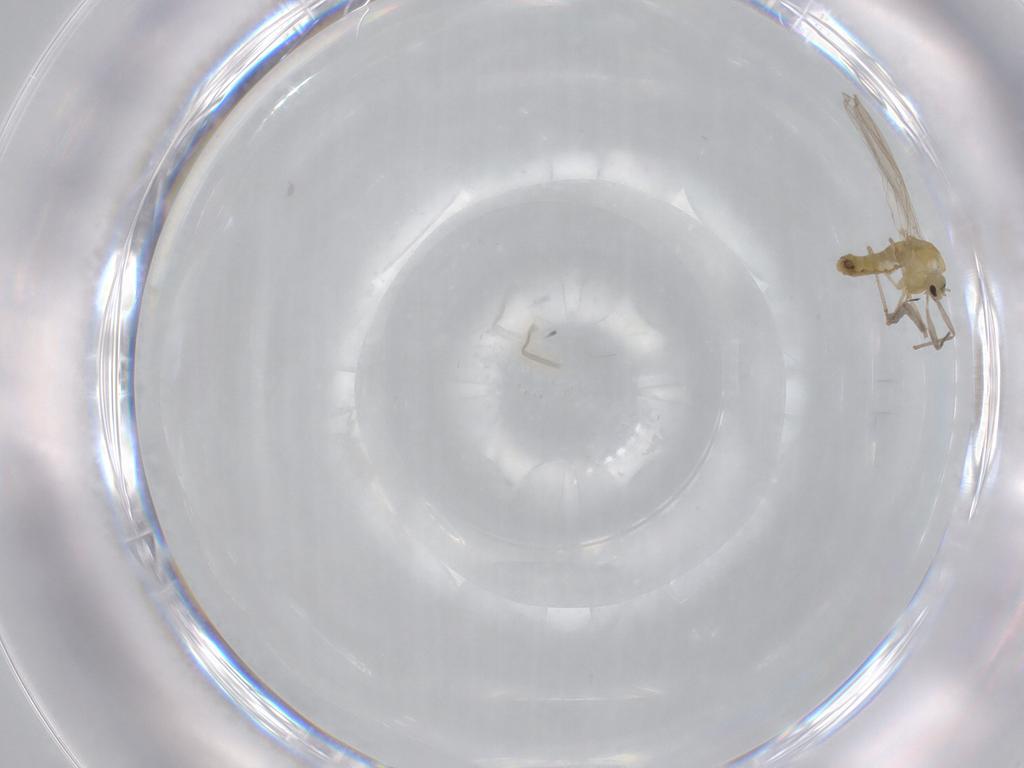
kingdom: Animalia
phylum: Arthropoda
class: Insecta
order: Diptera
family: Chironomidae
